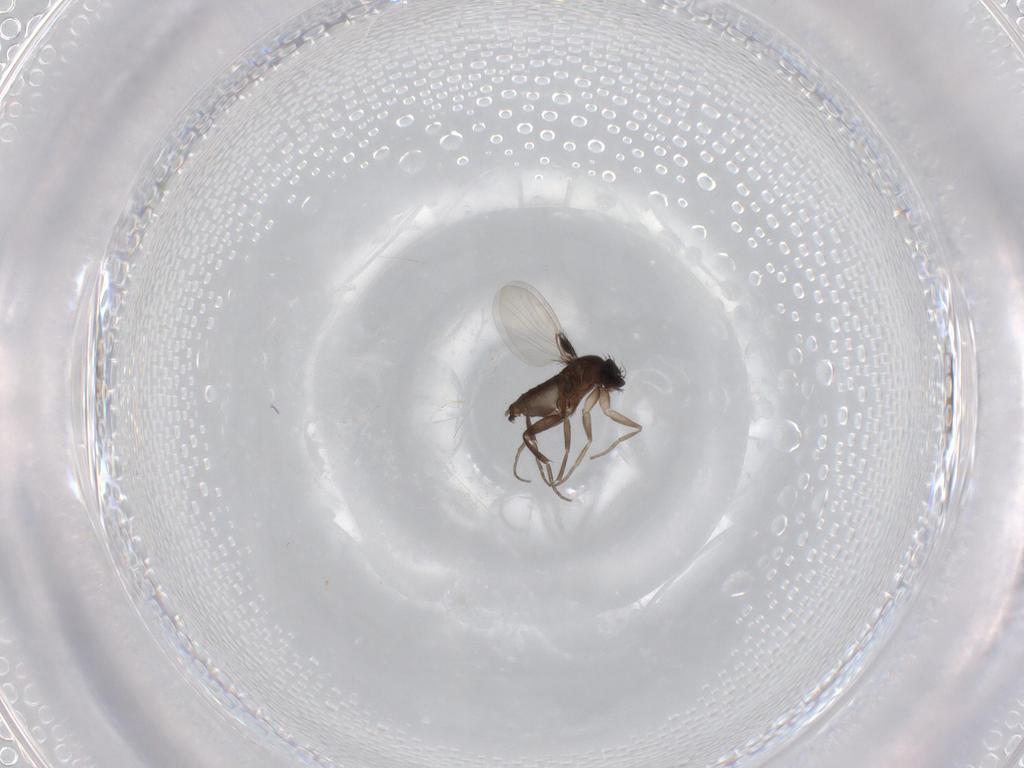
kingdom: Animalia
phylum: Arthropoda
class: Insecta
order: Diptera
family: Phoridae
